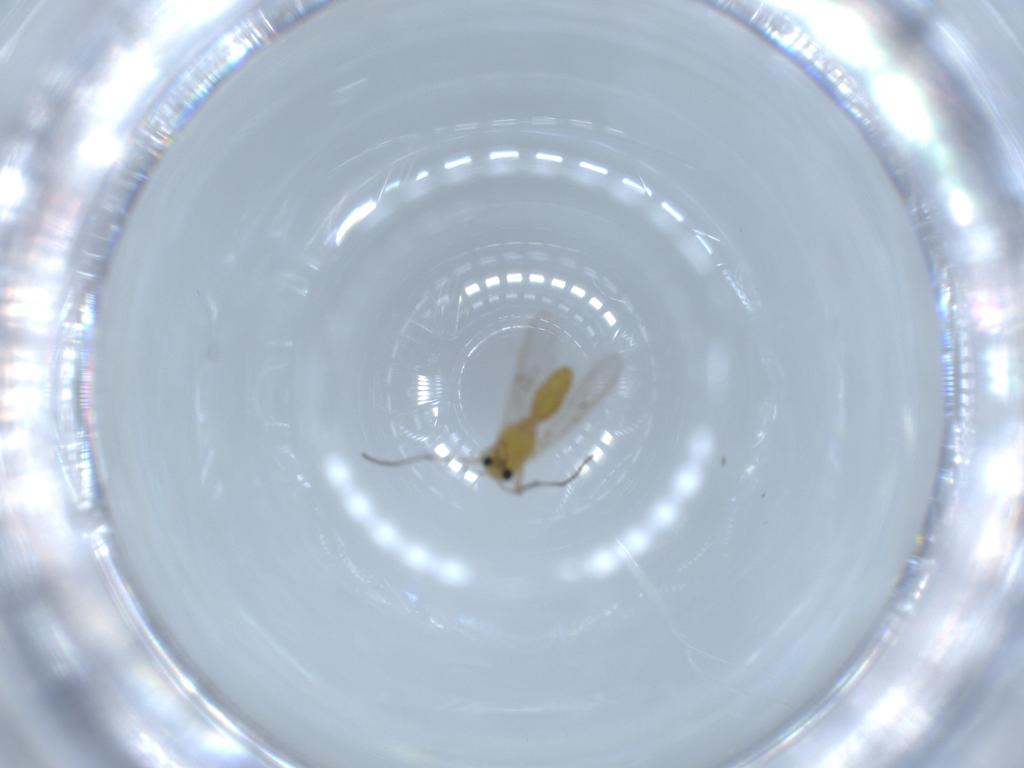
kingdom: Animalia
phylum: Arthropoda
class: Insecta
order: Diptera
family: Chironomidae
